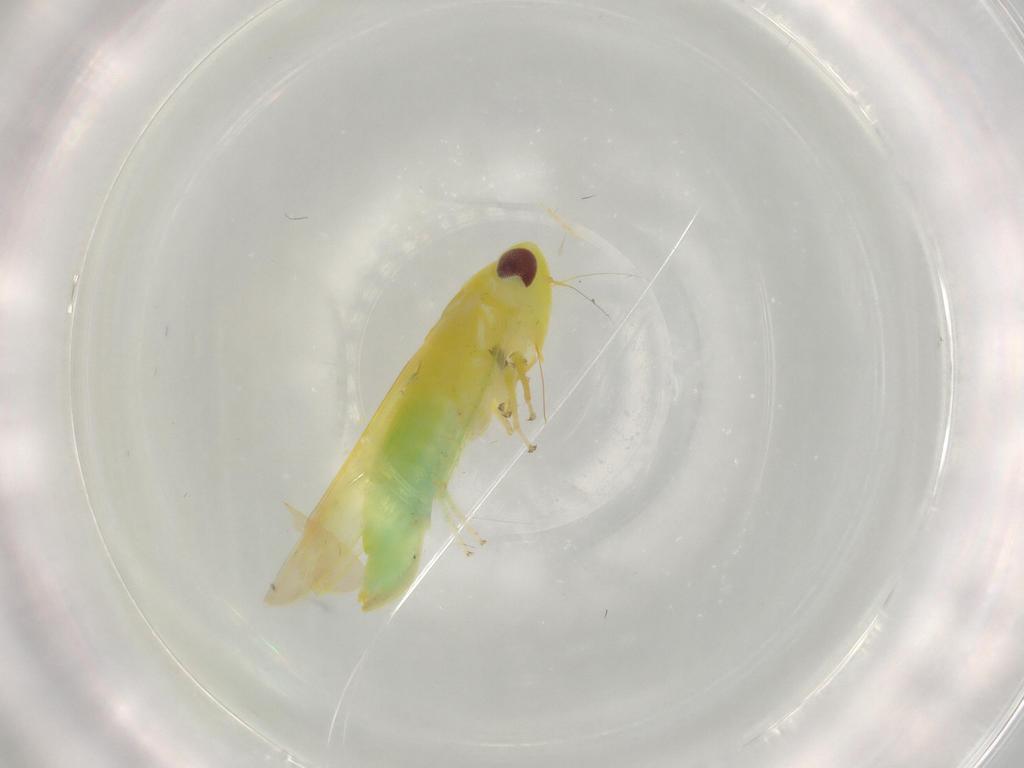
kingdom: Animalia
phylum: Arthropoda
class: Insecta
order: Hemiptera
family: Cicadellidae
